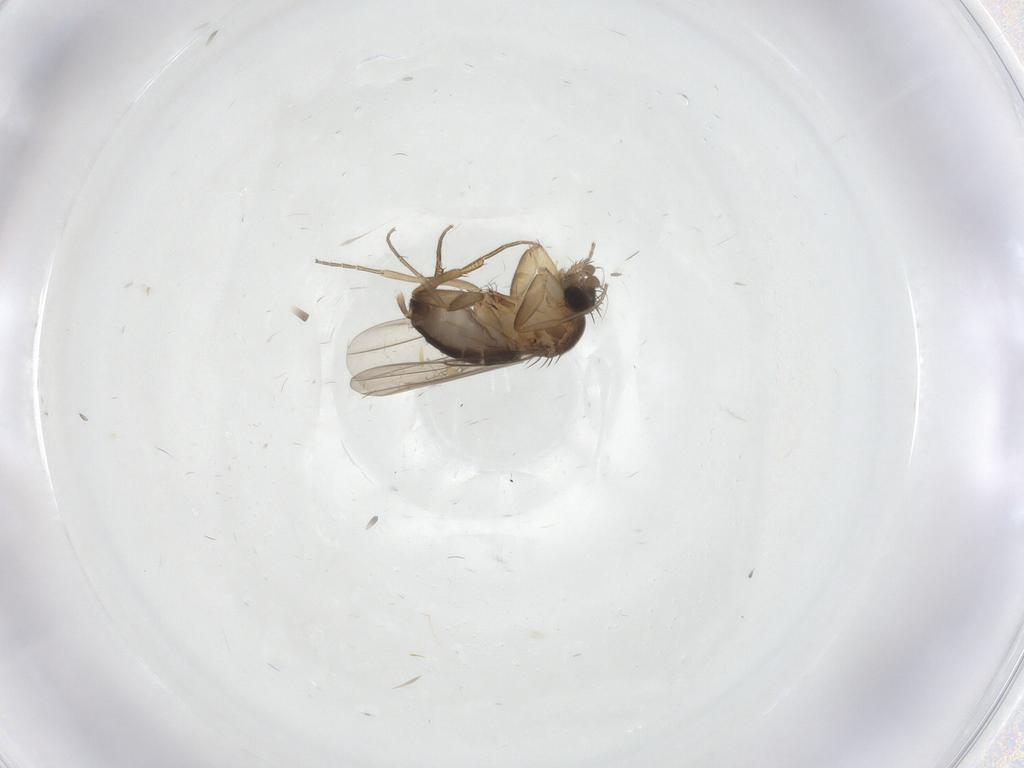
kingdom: Animalia
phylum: Arthropoda
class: Insecta
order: Diptera
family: Phoridae
